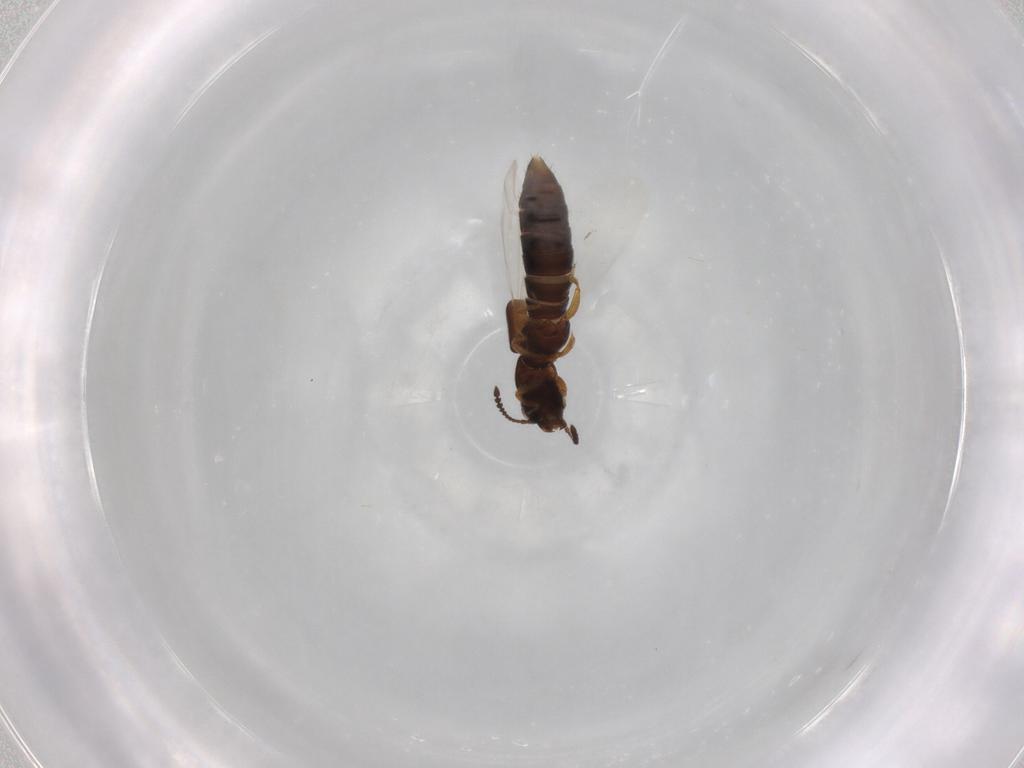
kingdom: Animalia
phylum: Arthropoda
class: Insecta
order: Coleoptera
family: Staphylinidae
